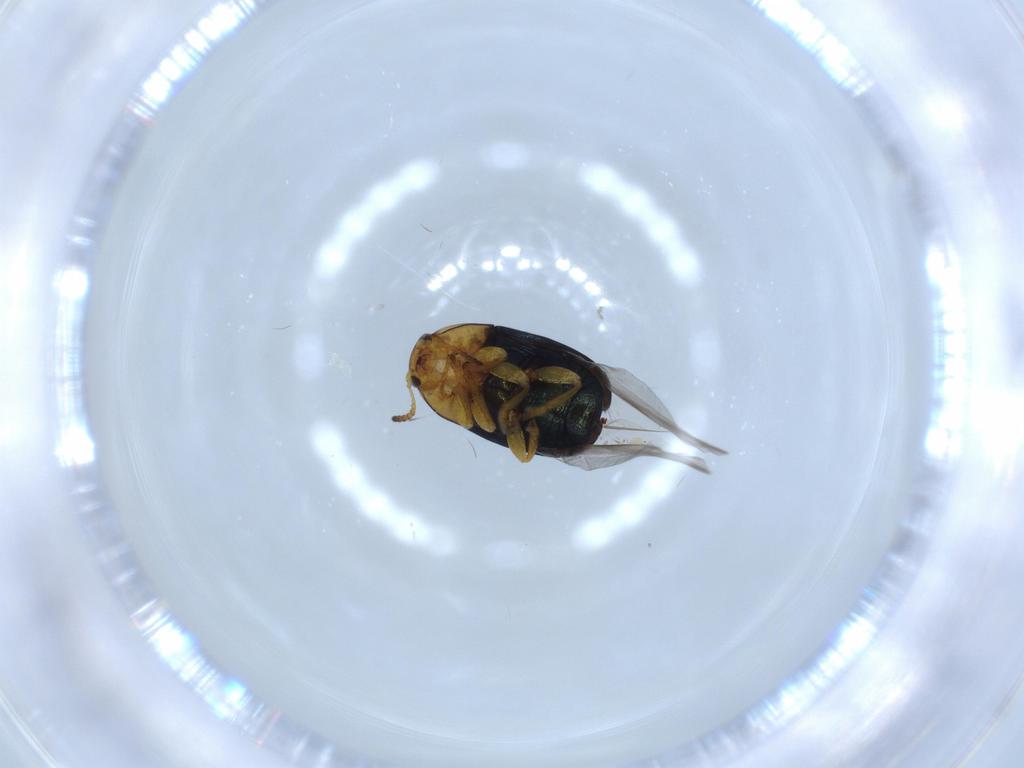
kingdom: Animalia
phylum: Arthropoda
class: Insecta
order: Coleoptera
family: Chrysomelidae
